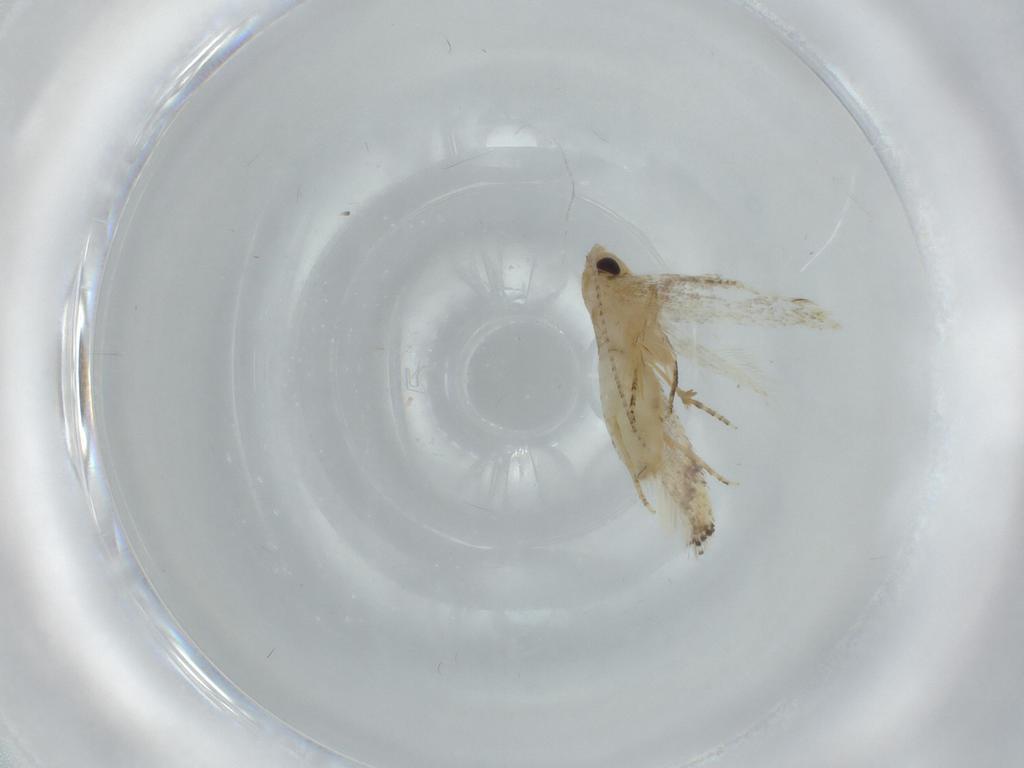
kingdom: Animalia
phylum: Arthropoda
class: Insecta
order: Lepidoptera
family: Bucculatricidae
